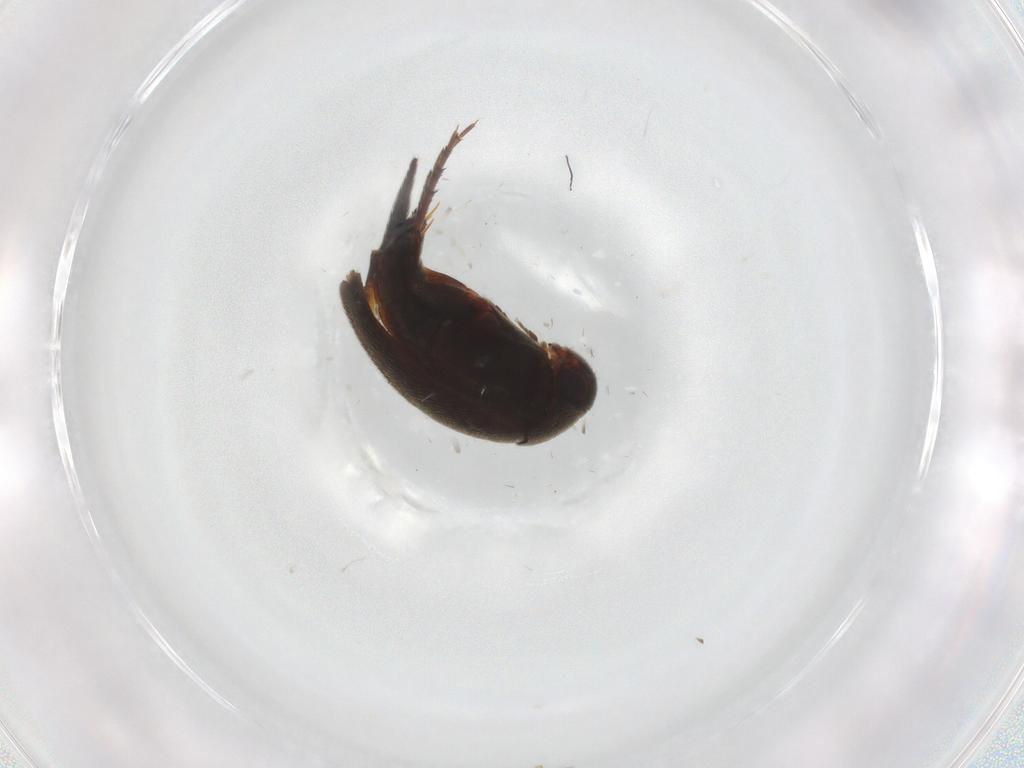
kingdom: Animalia
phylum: Arthropoda
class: Insecta
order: Coleoptera
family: Mordellidae
